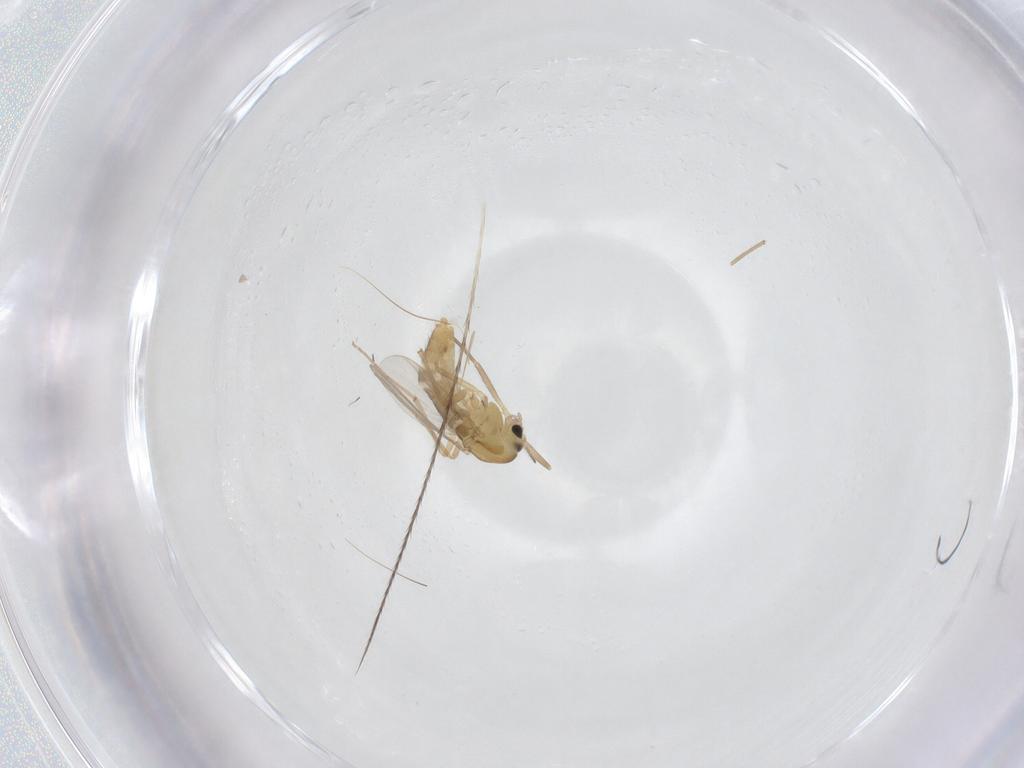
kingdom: Animalia
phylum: Arthropoda
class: Insecta
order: Diptera
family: Chironomidae
